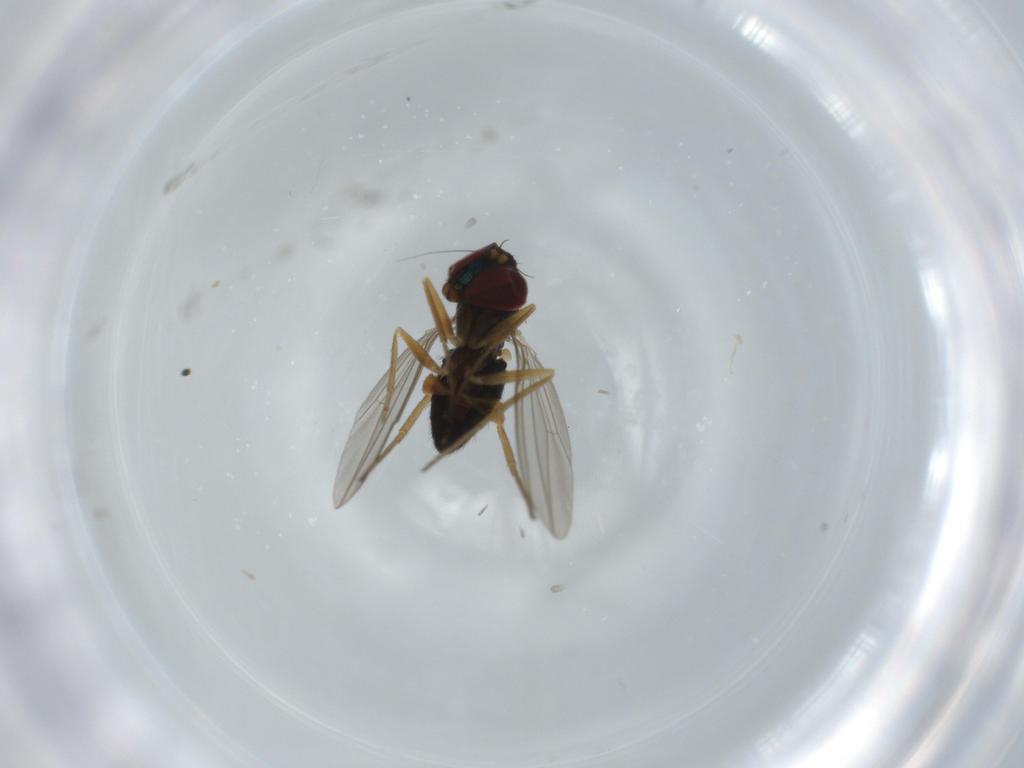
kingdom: Animalia
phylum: Arthropoda
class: Insecta
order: Diptera
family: Dolichopodidae
